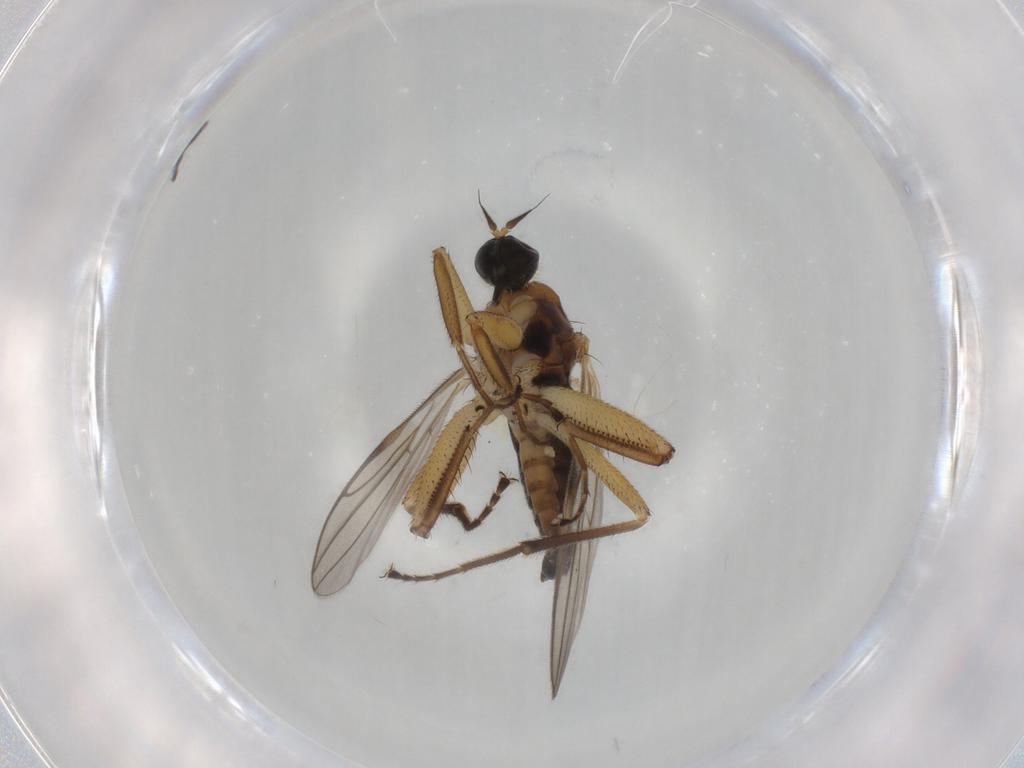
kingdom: Animalia
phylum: Arthropoda
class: Insecta
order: Diptera
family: Hybotidae
